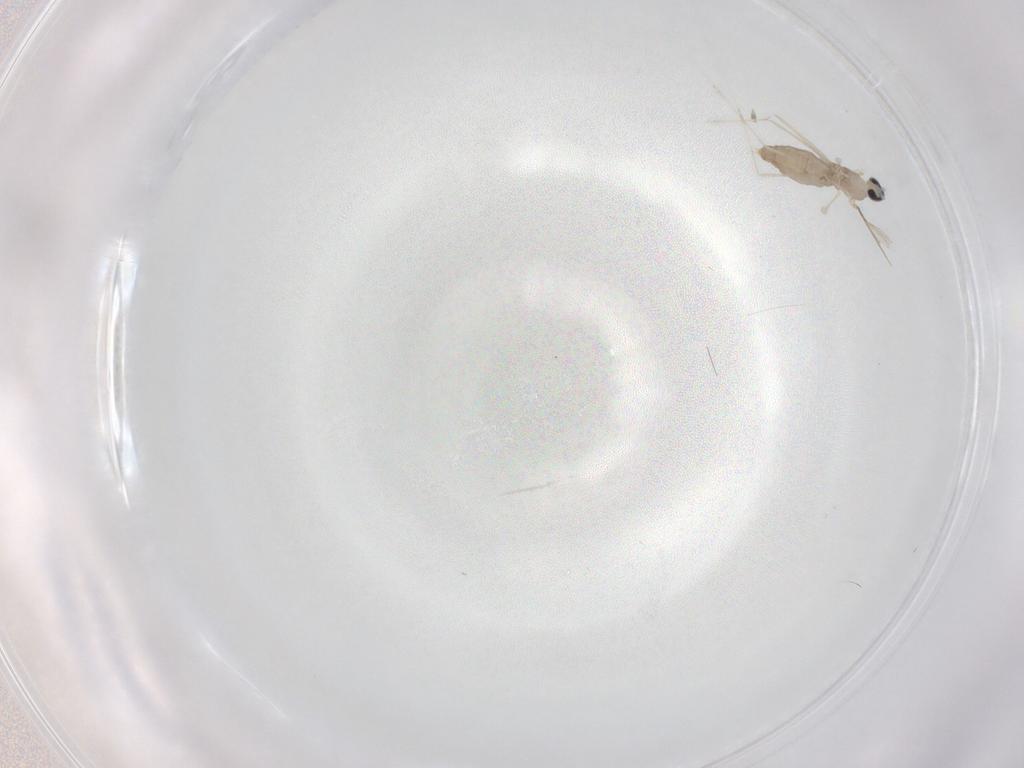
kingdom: Animalia
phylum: Arthropoda
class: Insecta
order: Diptera
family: Cecidomyiidae
